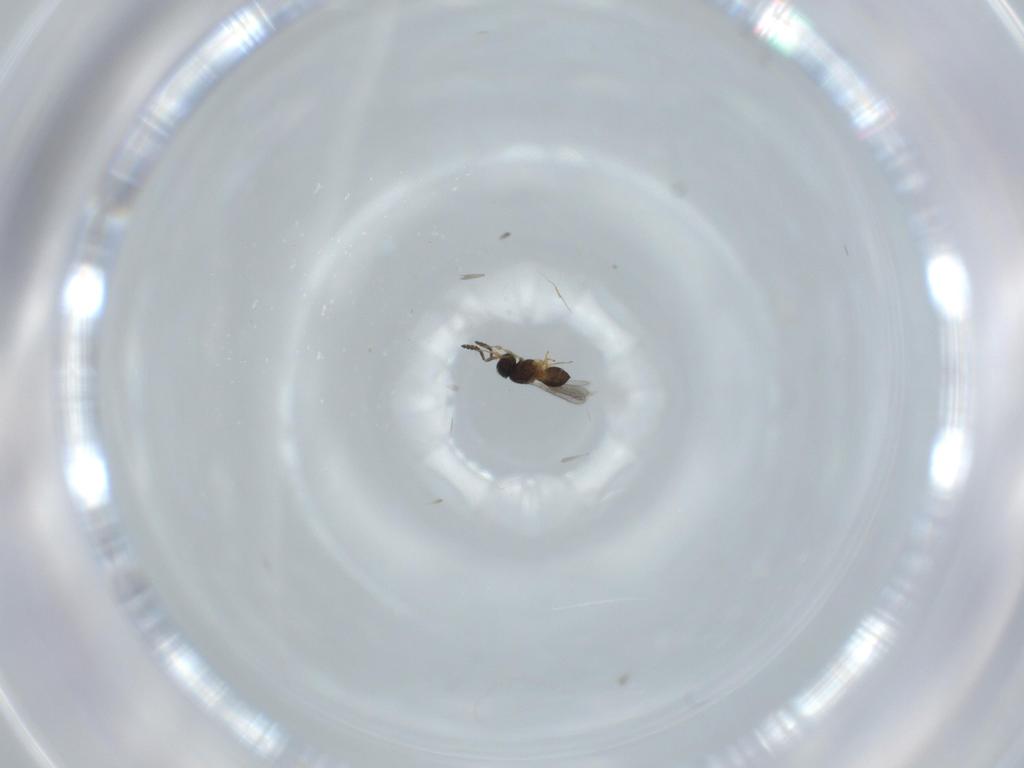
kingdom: Animalia
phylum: Arthropoda
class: Insecta
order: Hymenoptera
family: Scelionidae
